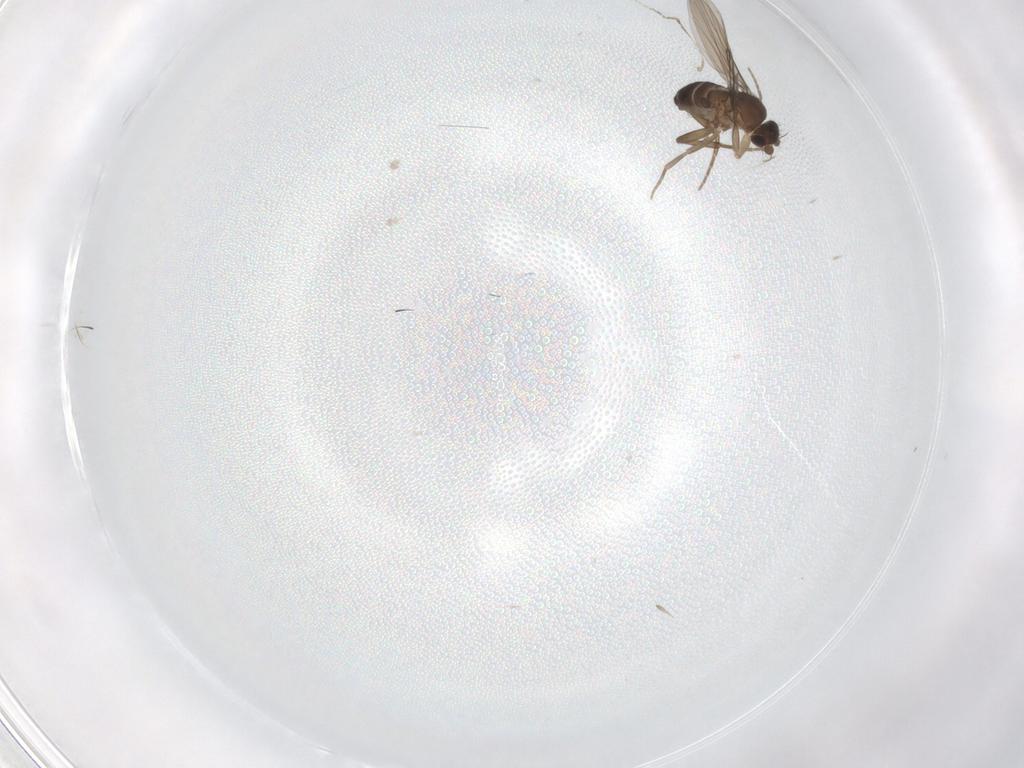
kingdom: Animalia
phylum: Arthropoda
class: Insecta
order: Diptera
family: Phoridae
